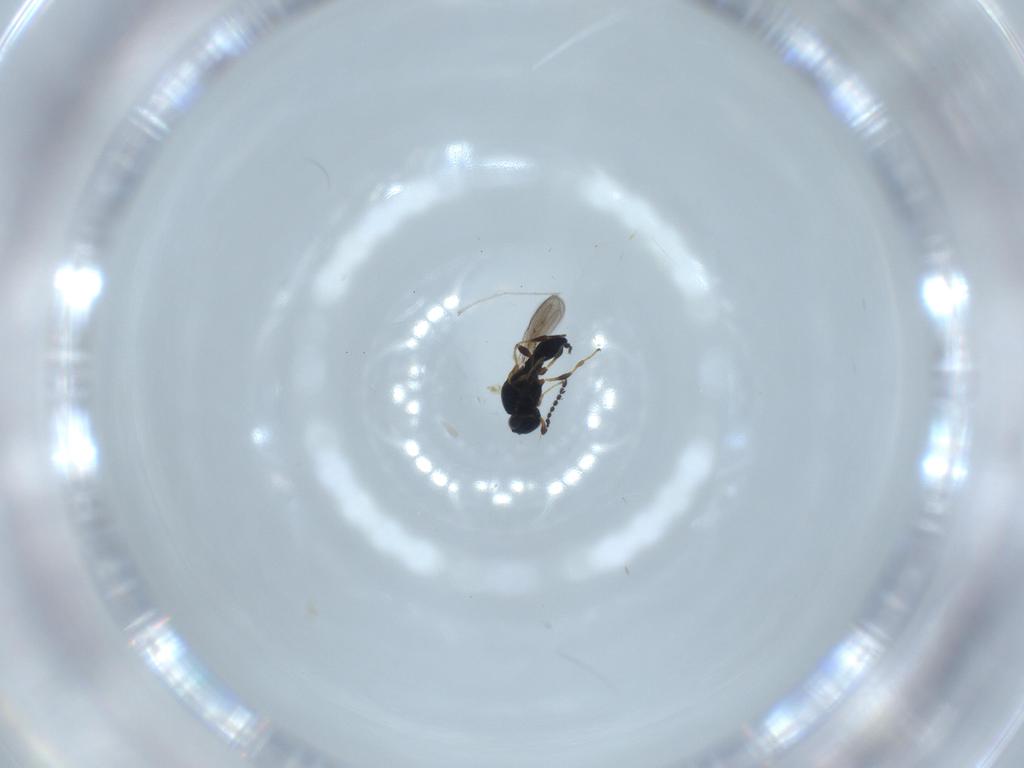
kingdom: Animalia
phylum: Arthropoda
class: Insecta
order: Hymenoptera
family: Platygastridae
